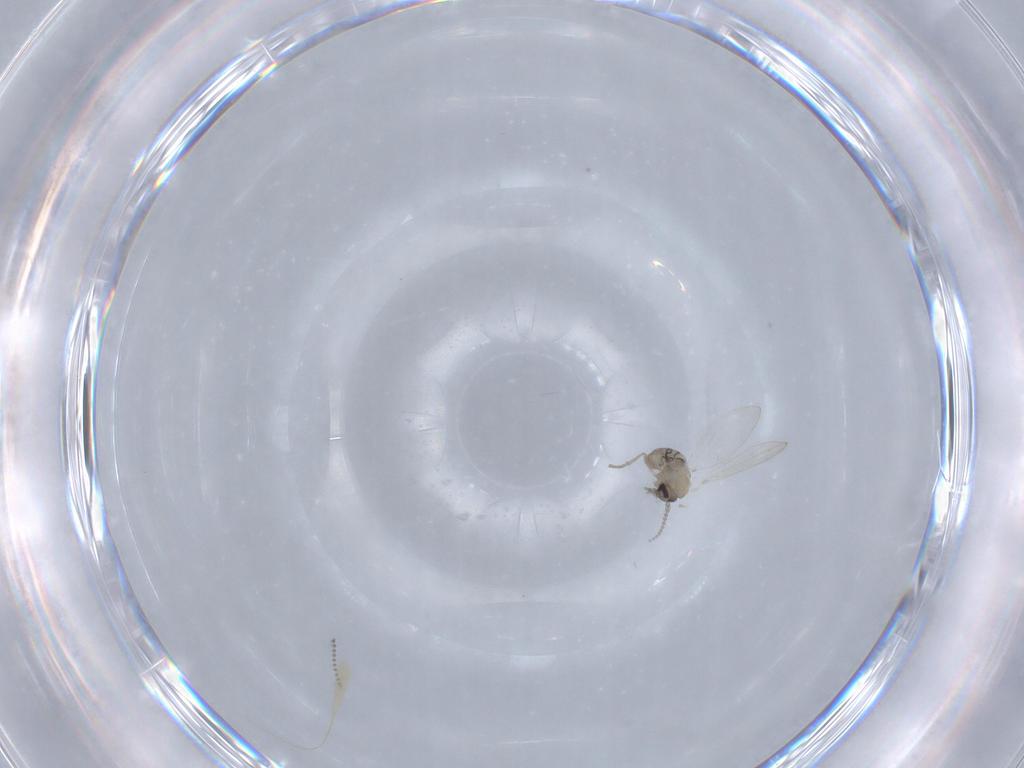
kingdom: Animalia
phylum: Arthropoda
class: Insecta
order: Diptera
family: Psychodidae
